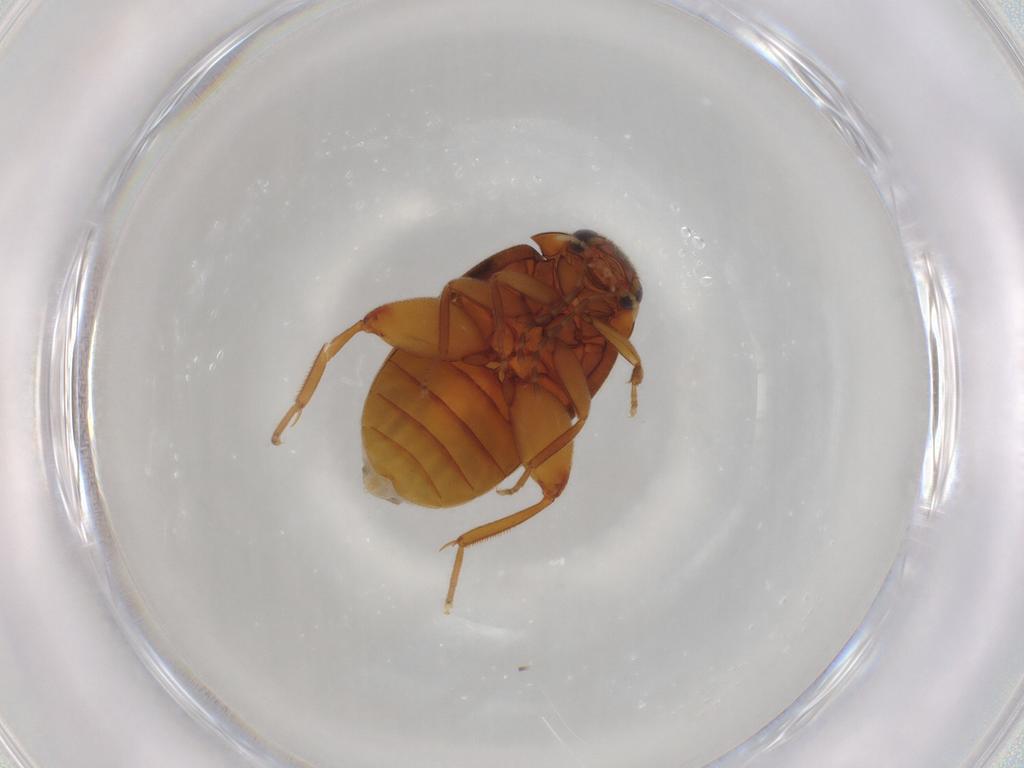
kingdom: Animalia
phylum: Arthropoda
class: Insecta
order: Coleoptera
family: Scirtidae
